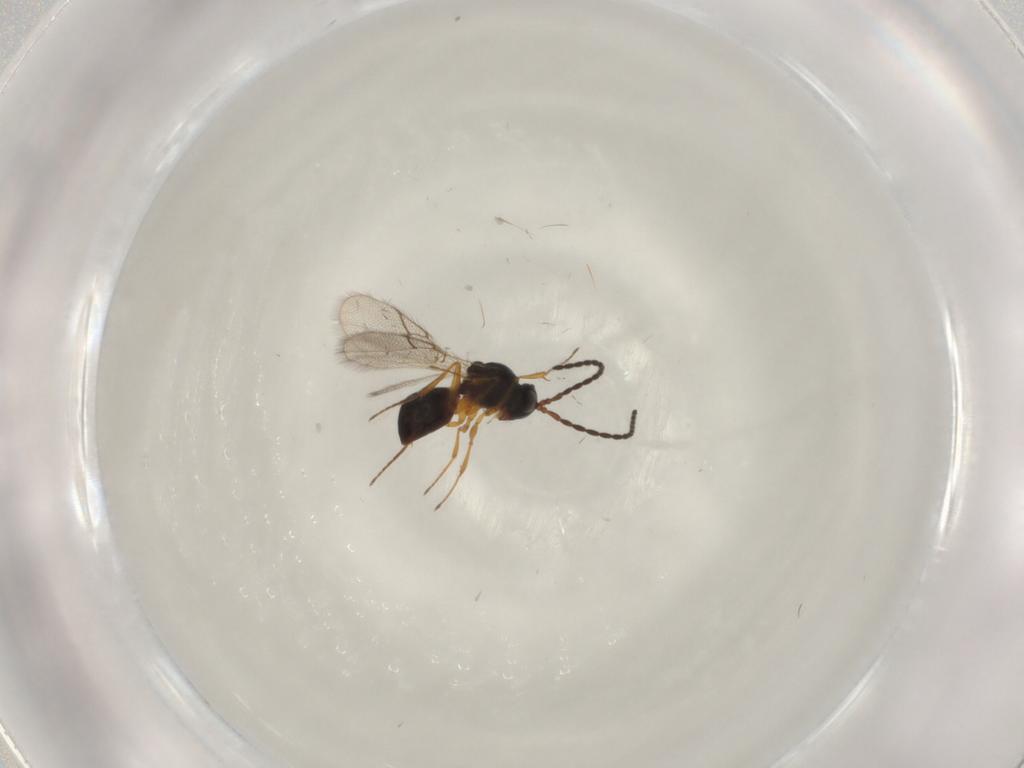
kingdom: Animalia
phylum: Arthropoda
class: Insecta
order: Hymenoptera
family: Figitidae
